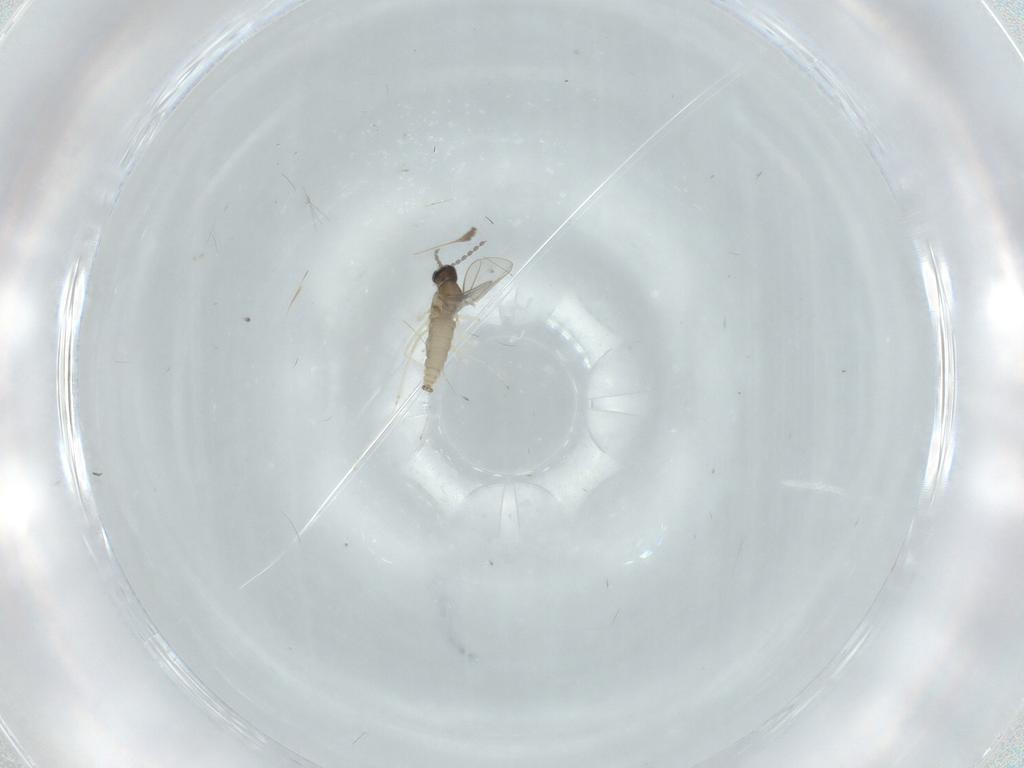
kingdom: Animalia
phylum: Arthropoda
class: Insecta
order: Diptera
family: Cecidomyiidae
